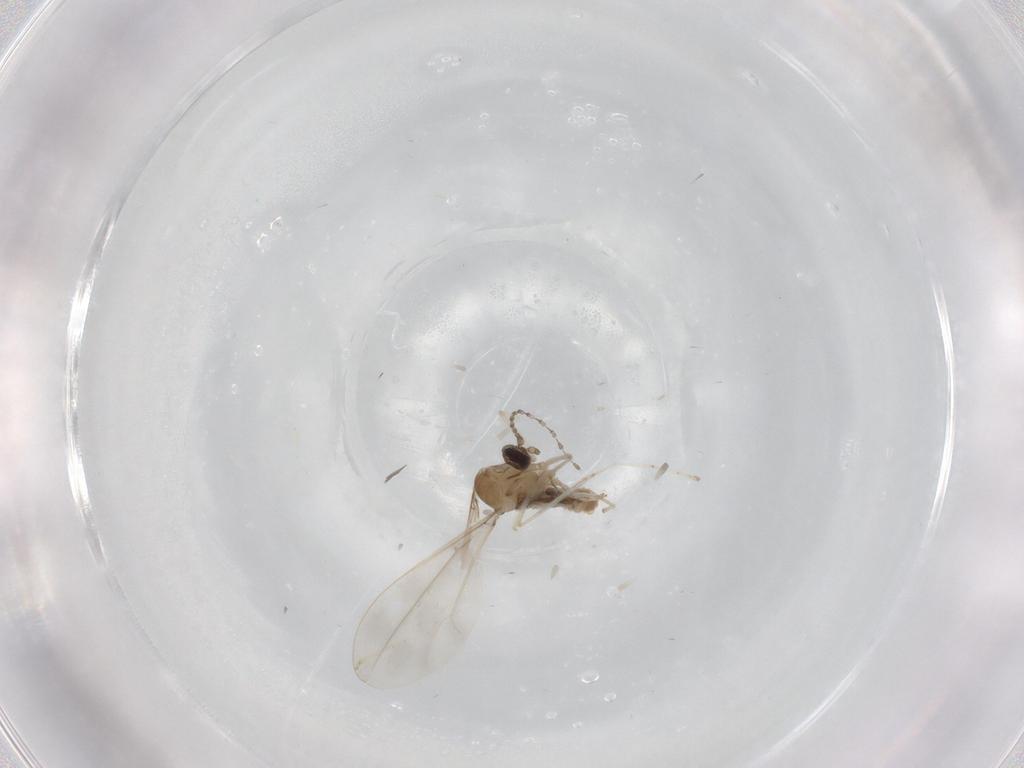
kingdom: Animalia
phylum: Arthropoda
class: Insecta
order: Diptera
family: Cecidomyiidae
